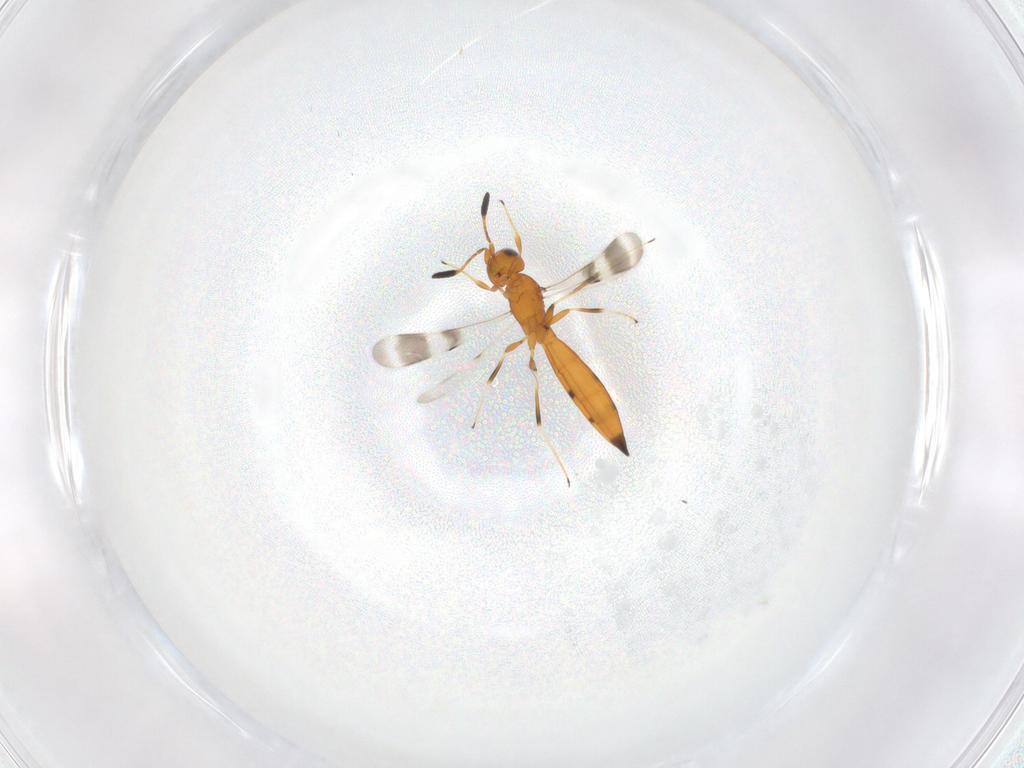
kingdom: Animalia
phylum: Arthropoda
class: Insecta
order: Hymenoptera
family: Scelionidae
